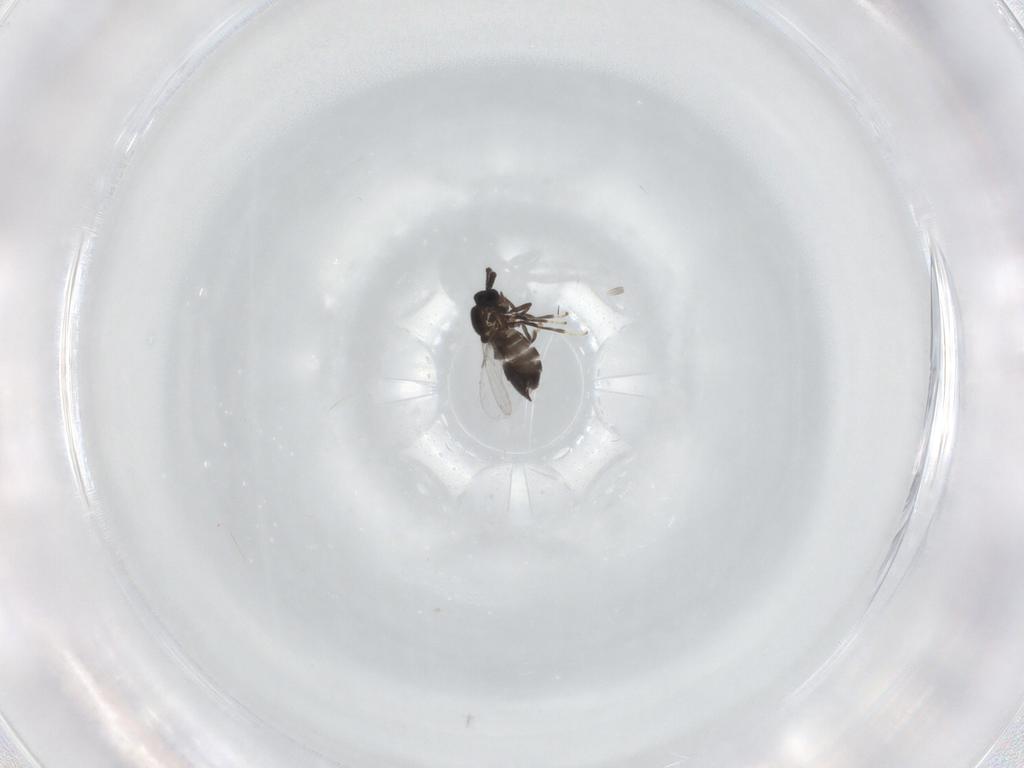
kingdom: Animalia
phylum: Arthropoda
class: Insecta
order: Diptera
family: Scatopsidae
